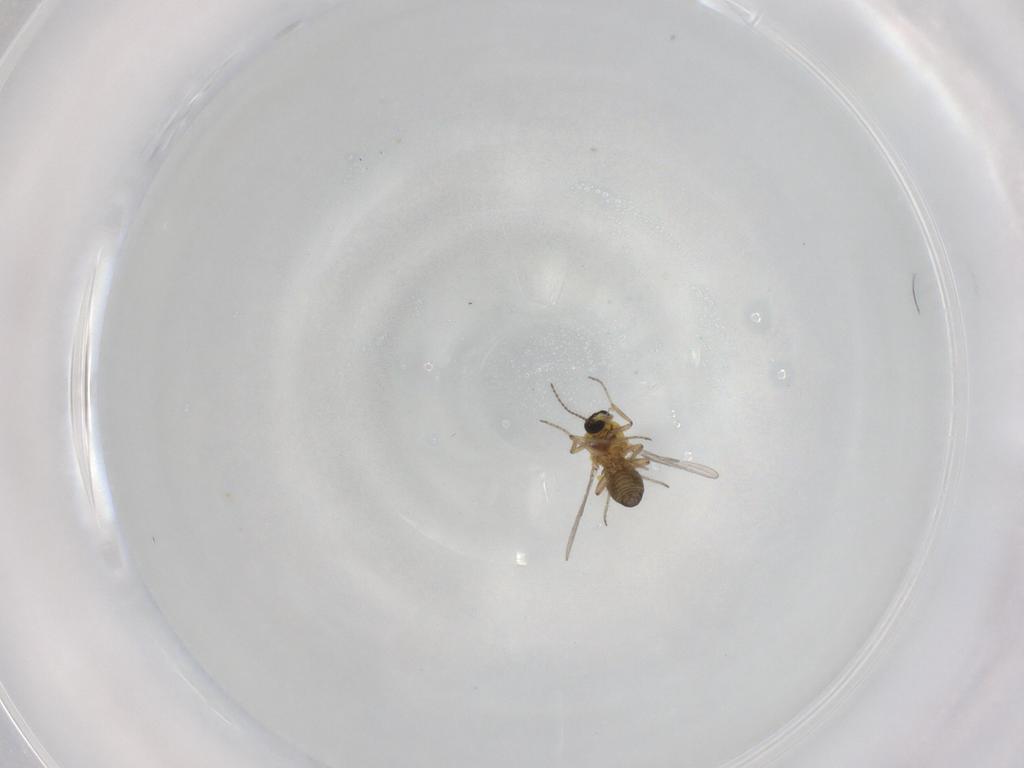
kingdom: Animalia
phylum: Arthropoda
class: Insecta
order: Diptera
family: Ceratopogonidae
